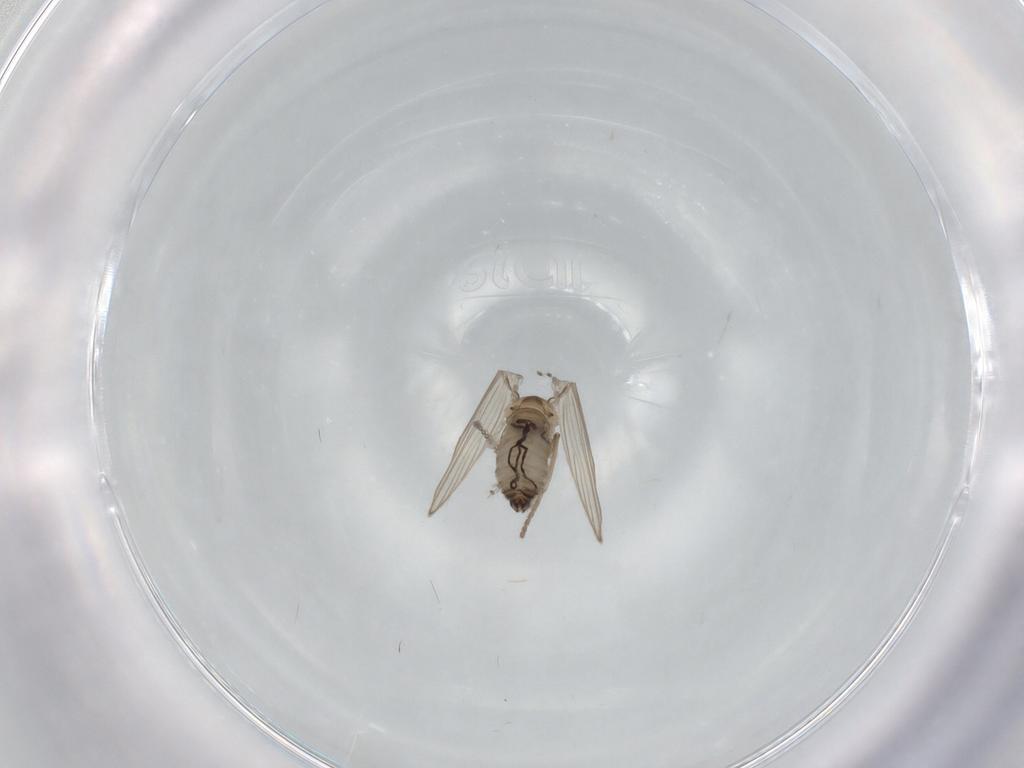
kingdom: Animalia
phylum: Arthropoda
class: Insecta
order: Diptera
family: Psychodidae
